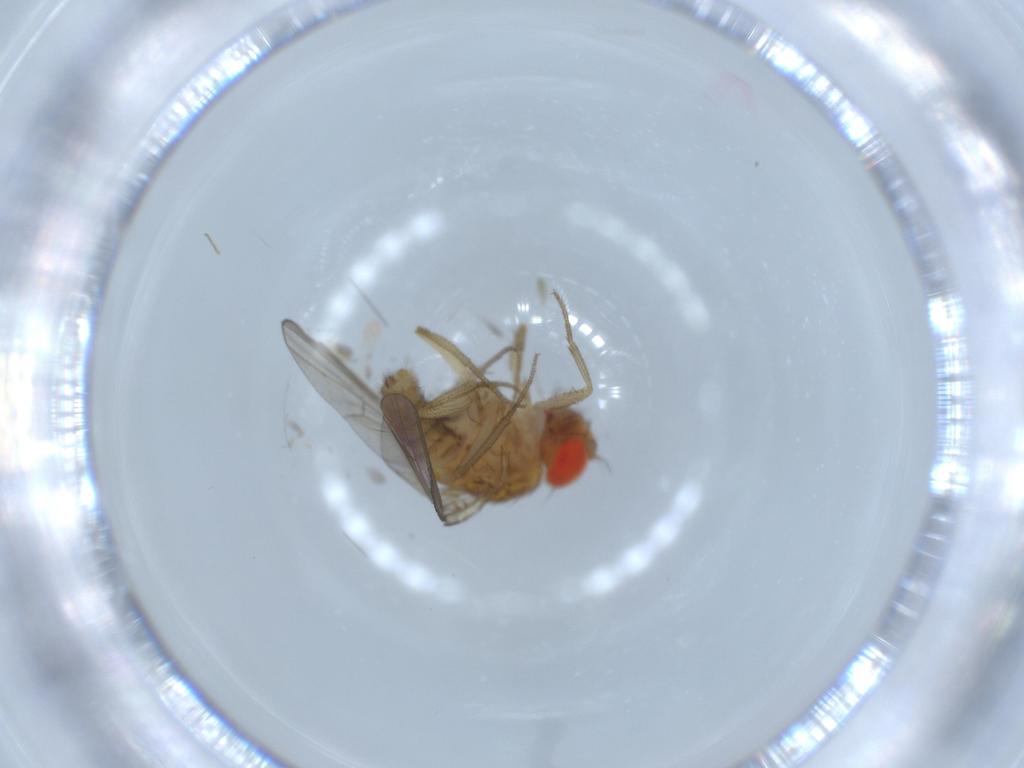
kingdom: Animalia
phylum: Arthropoda
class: Insecta
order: Diptera
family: Drosophilidae
